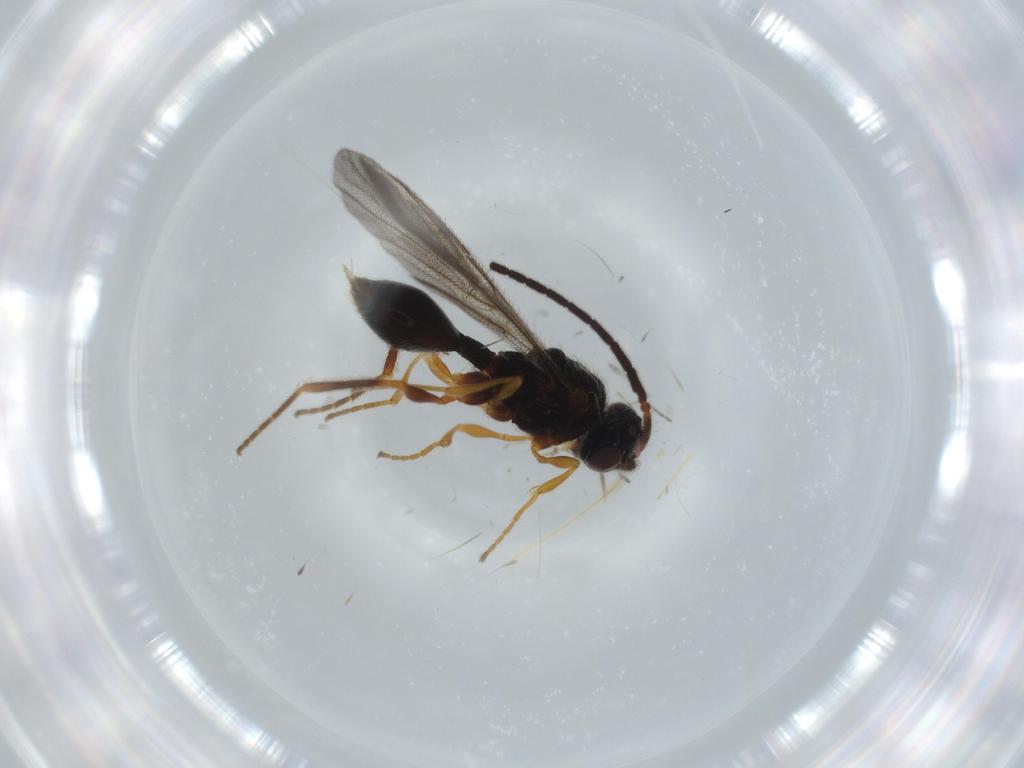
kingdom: Animalia
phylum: Arthropoda
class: Insecta
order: Hymenoptera
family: Diapriidae
